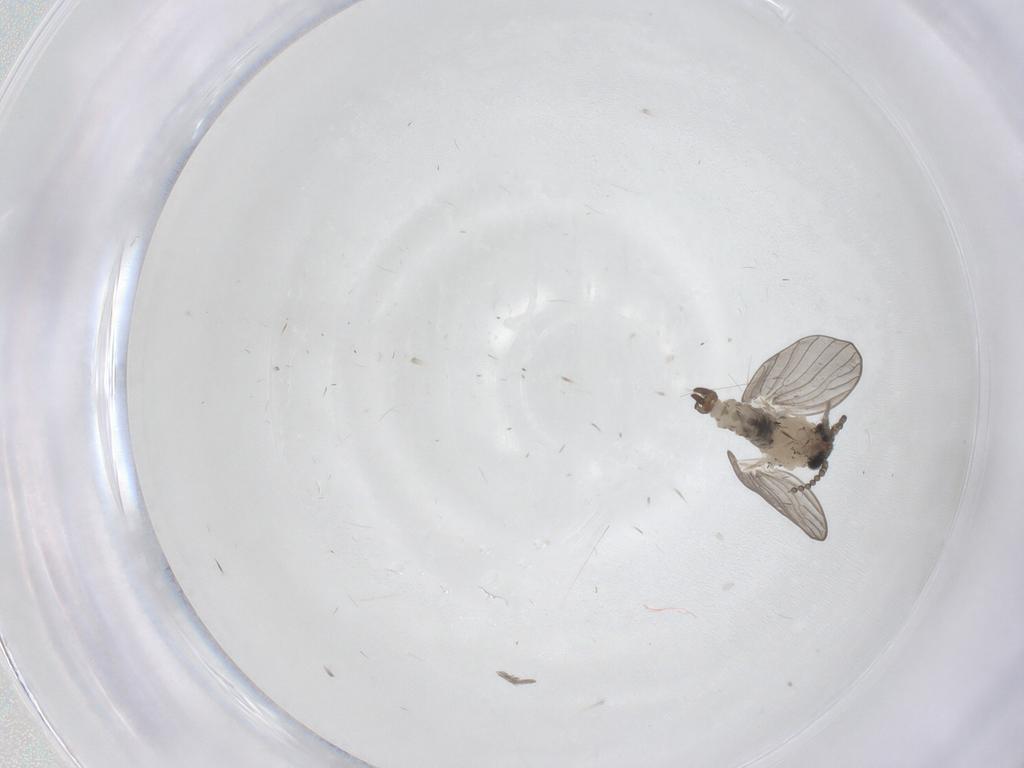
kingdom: Animalia
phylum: Arthropoda
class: Insecta
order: Diptera
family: Psychodidae
